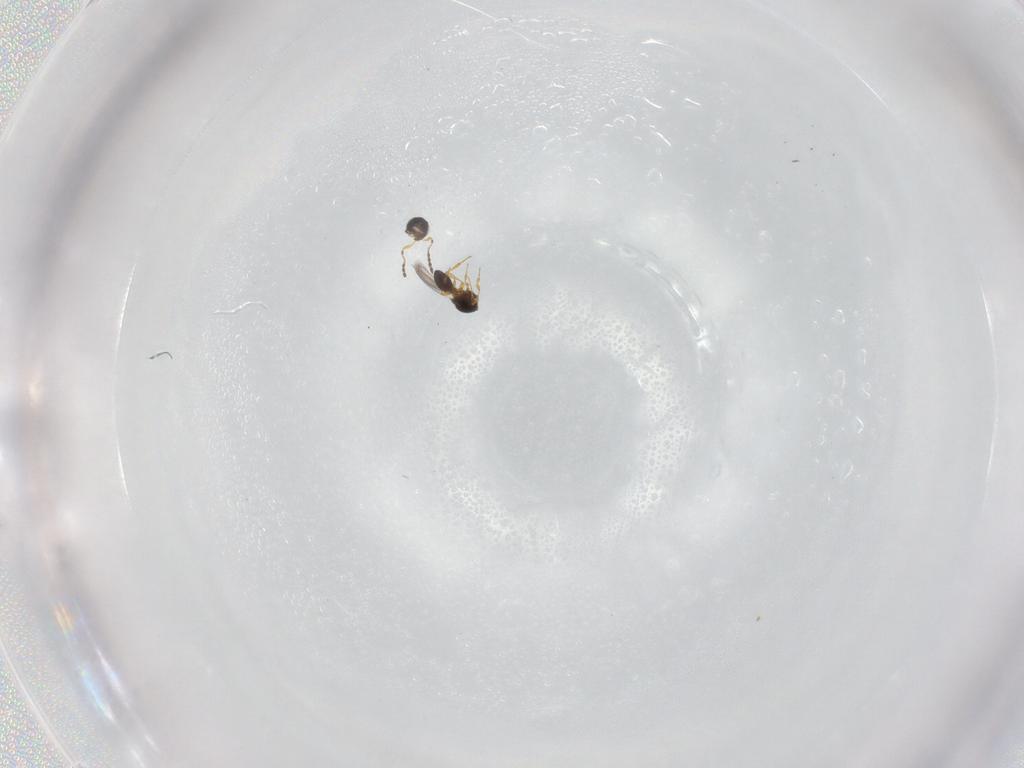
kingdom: Animalia
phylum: Arthropoda
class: Insecta
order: Hymenoptera
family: Platygastridae
